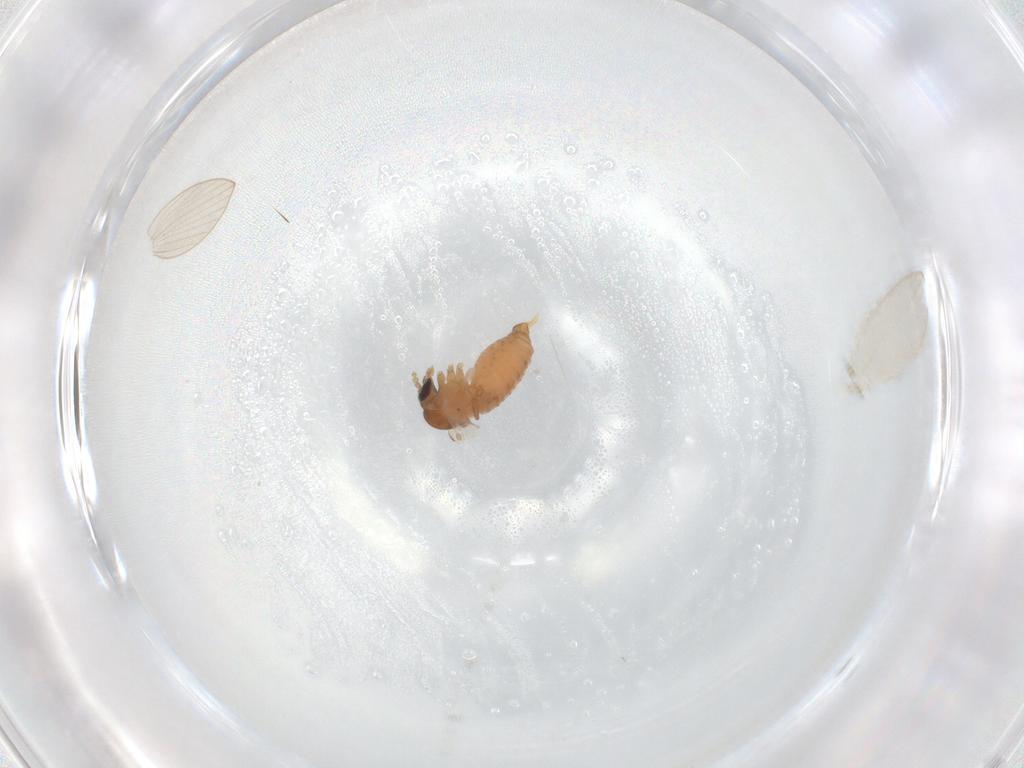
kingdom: Animalia
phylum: Arthropoda
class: Insecta
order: Diptera
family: Psychodidae
